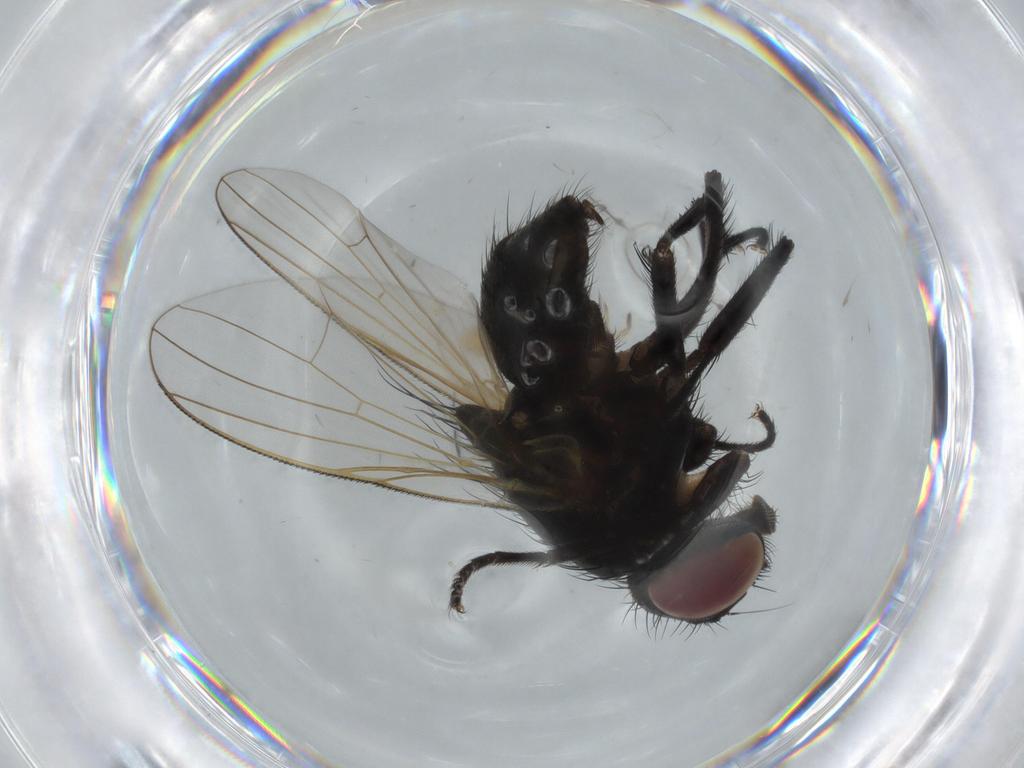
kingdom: Animalia
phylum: Arthropoda
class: Insecta
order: Diptera
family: Muscidae
